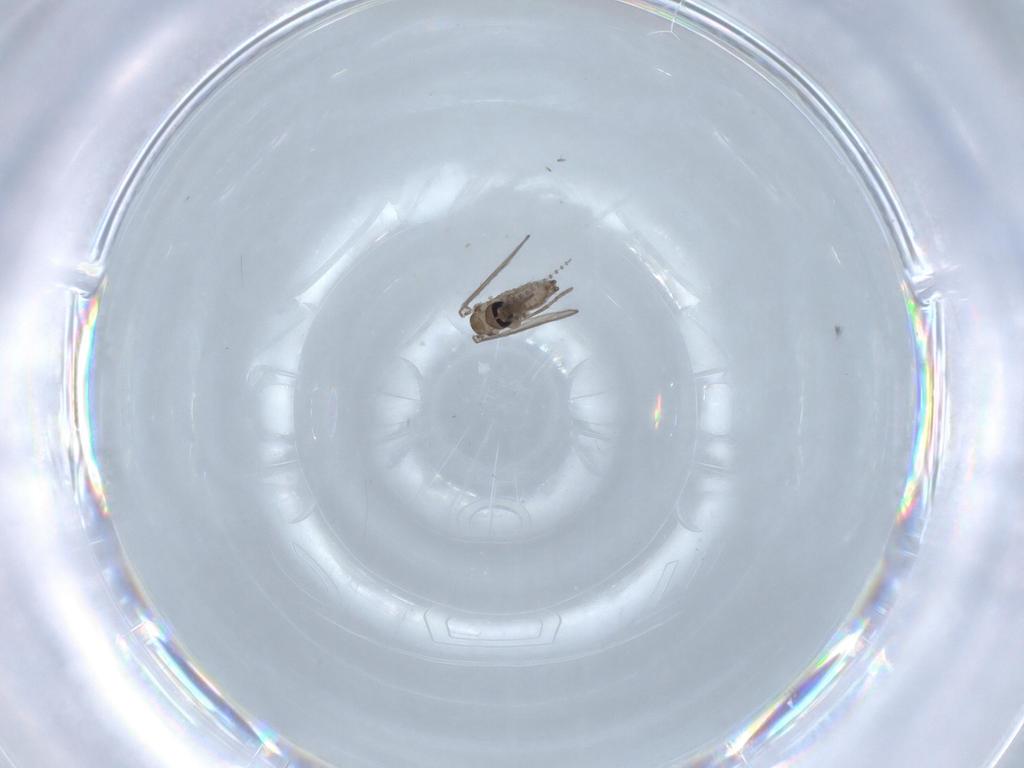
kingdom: Animalia
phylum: Arthropoda
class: Insecta
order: Diptera
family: Psychodidae
